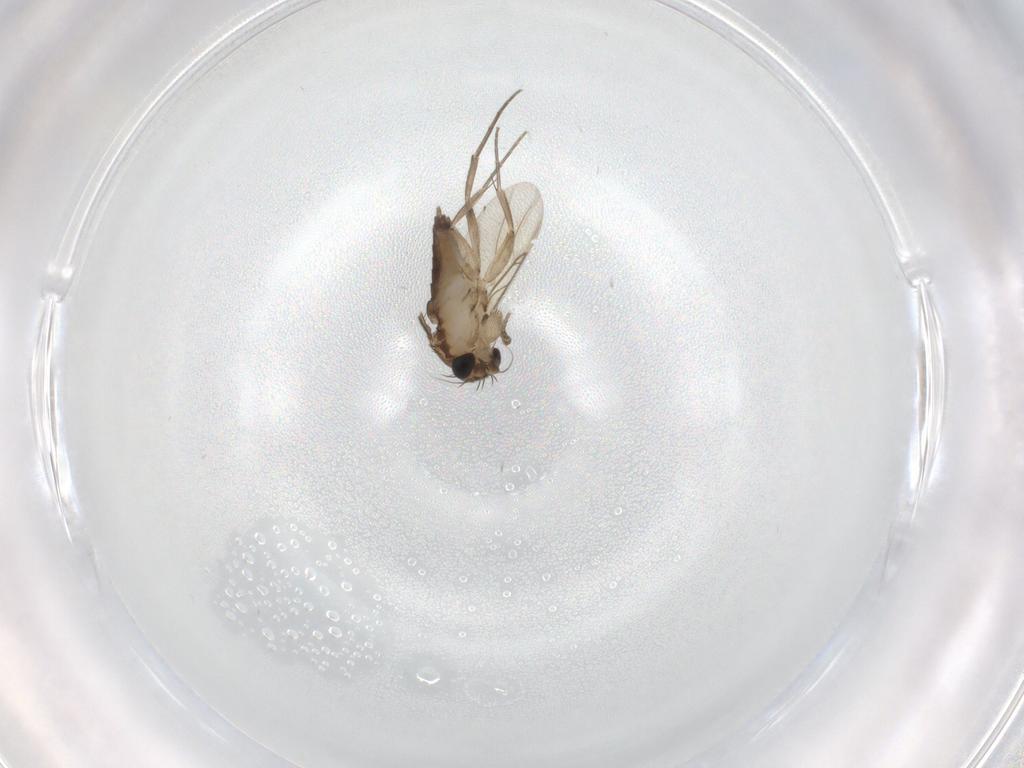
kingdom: Animalia
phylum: Arthropoda
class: Insecta
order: Diptera
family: Phoridae
